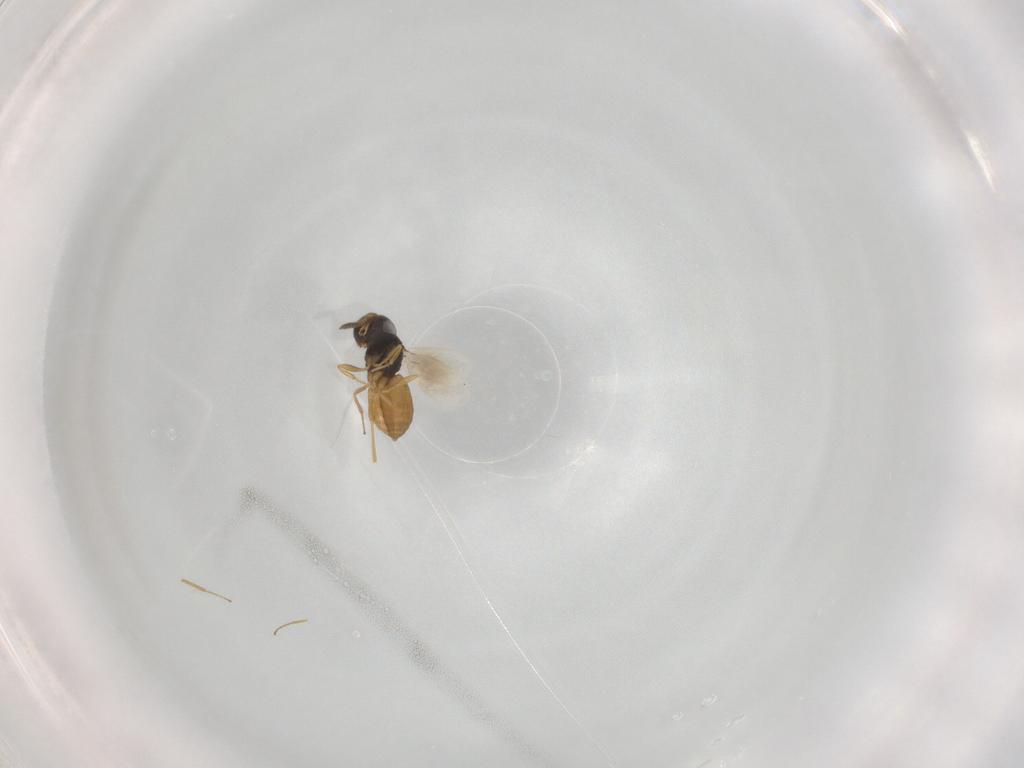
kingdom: Animalia
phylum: Arthropoda
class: Insecta
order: Hymenoptera
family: Scelionidae
